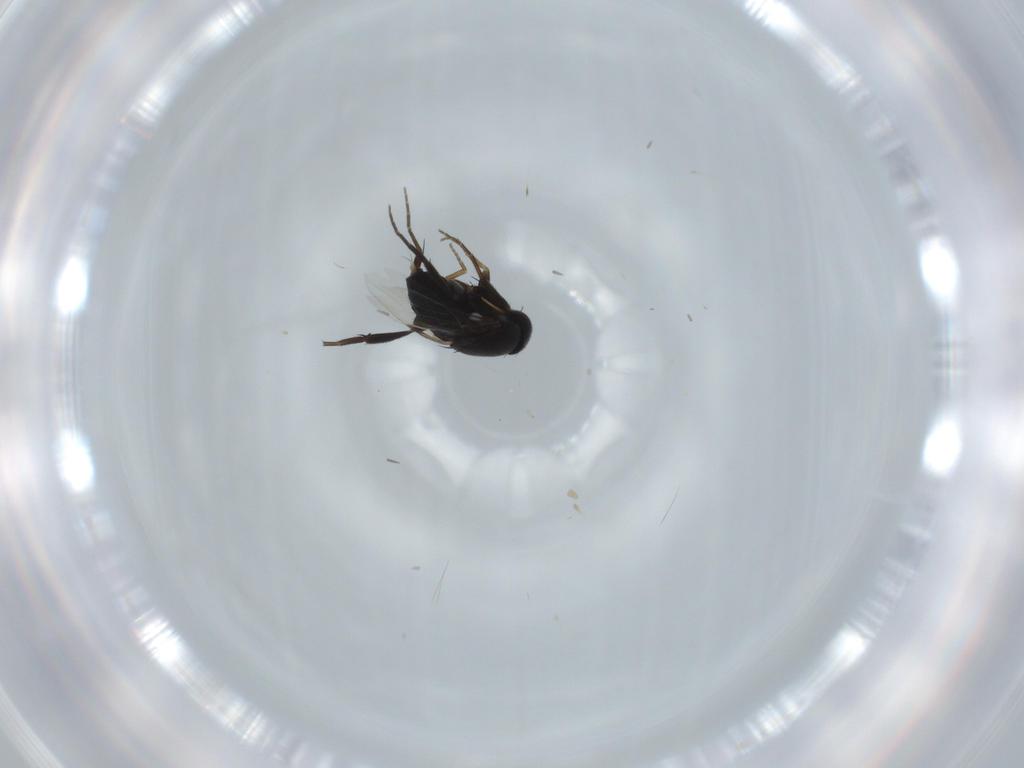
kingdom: Animalia
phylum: Arthropoda
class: Insecta
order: Diptera
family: Phoridae
